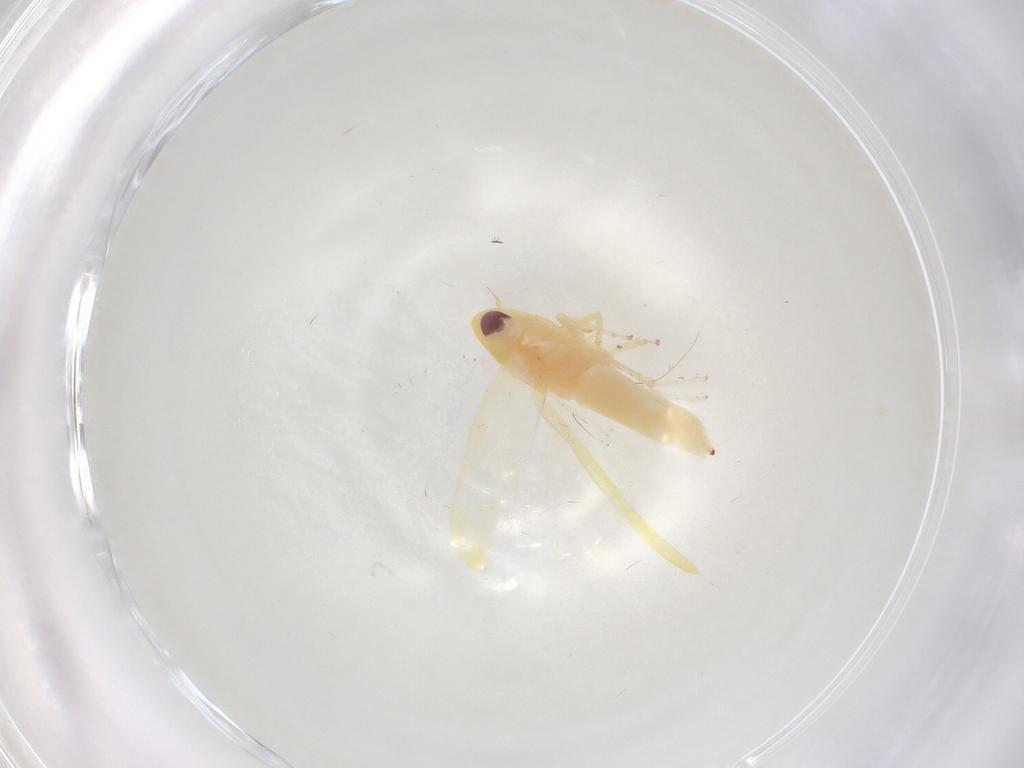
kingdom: Animalia
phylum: Arthropoda
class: Insecta
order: Hemiptera
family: Cicadellidae
